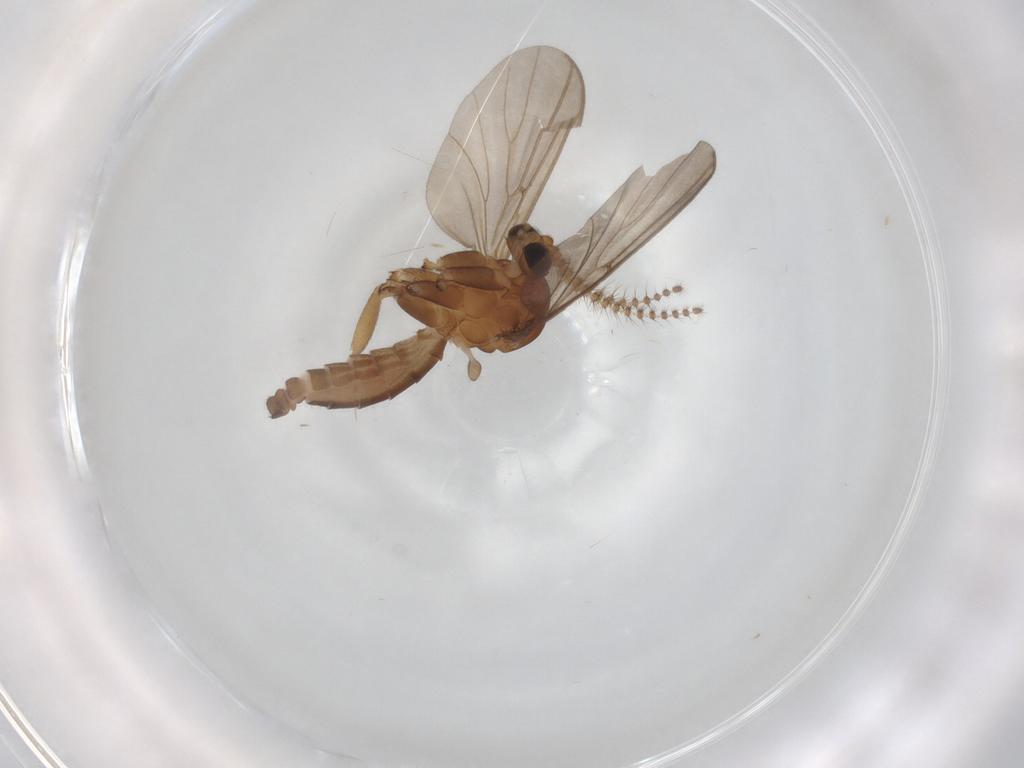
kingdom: Animalia
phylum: Arthropoda
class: Insecta
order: Diptera
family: Mycetophilidae
